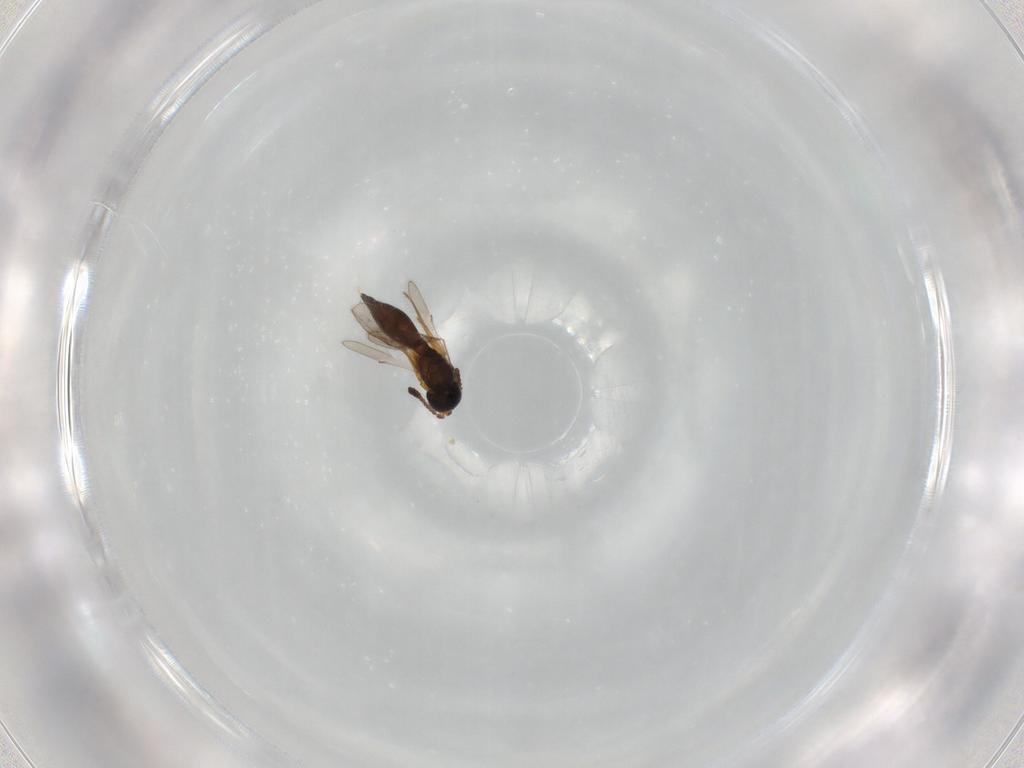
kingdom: Animalia
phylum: Arthropoda
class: Insecta
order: Hymenoptera
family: Scelionidae
